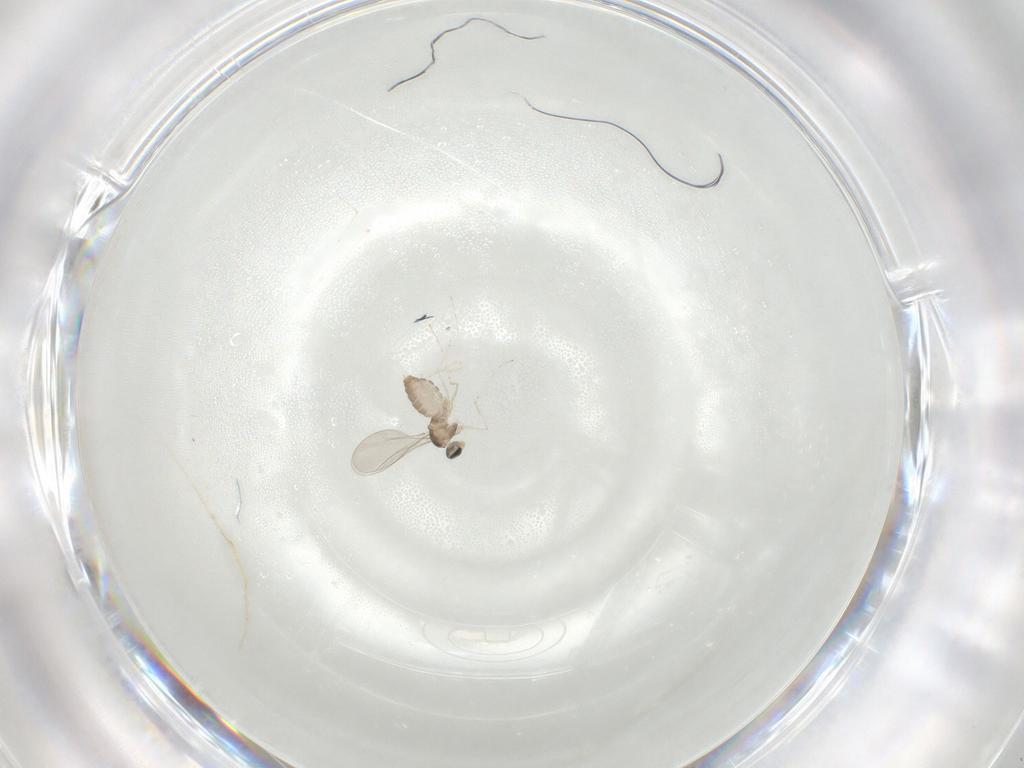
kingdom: Animalia
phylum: Arthropoda
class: Insecta
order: Diptera
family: Cecidomyiidae
